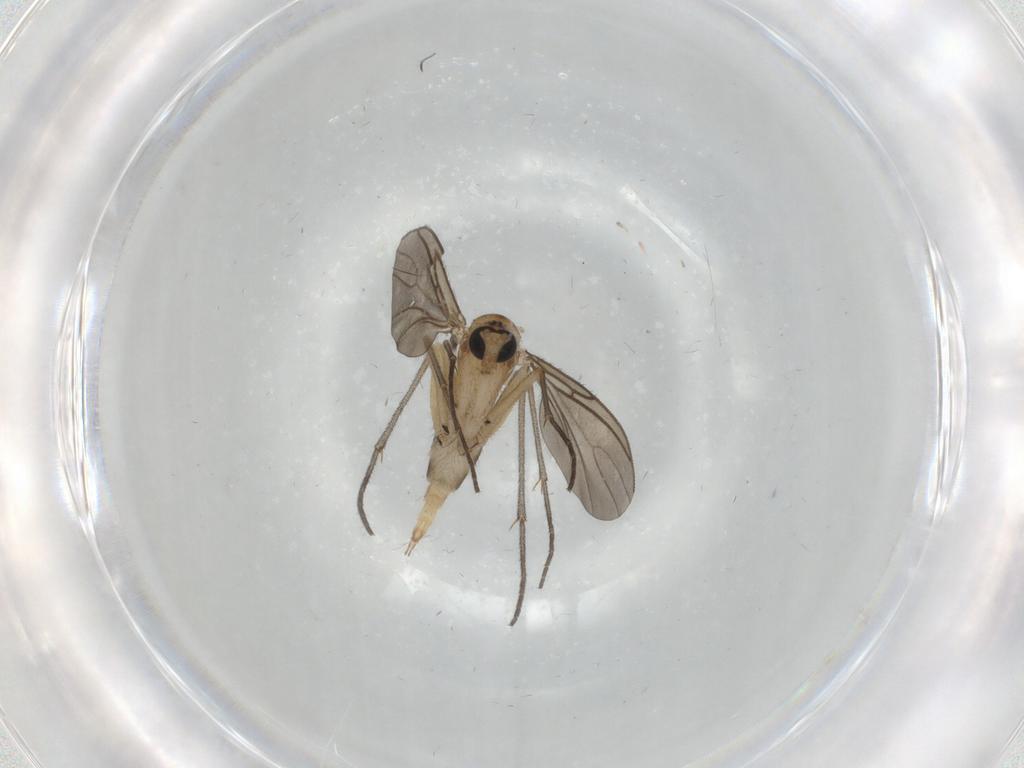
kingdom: Animalia
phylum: Arthropoda
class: Insecta
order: Diptera
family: Sciaridae
